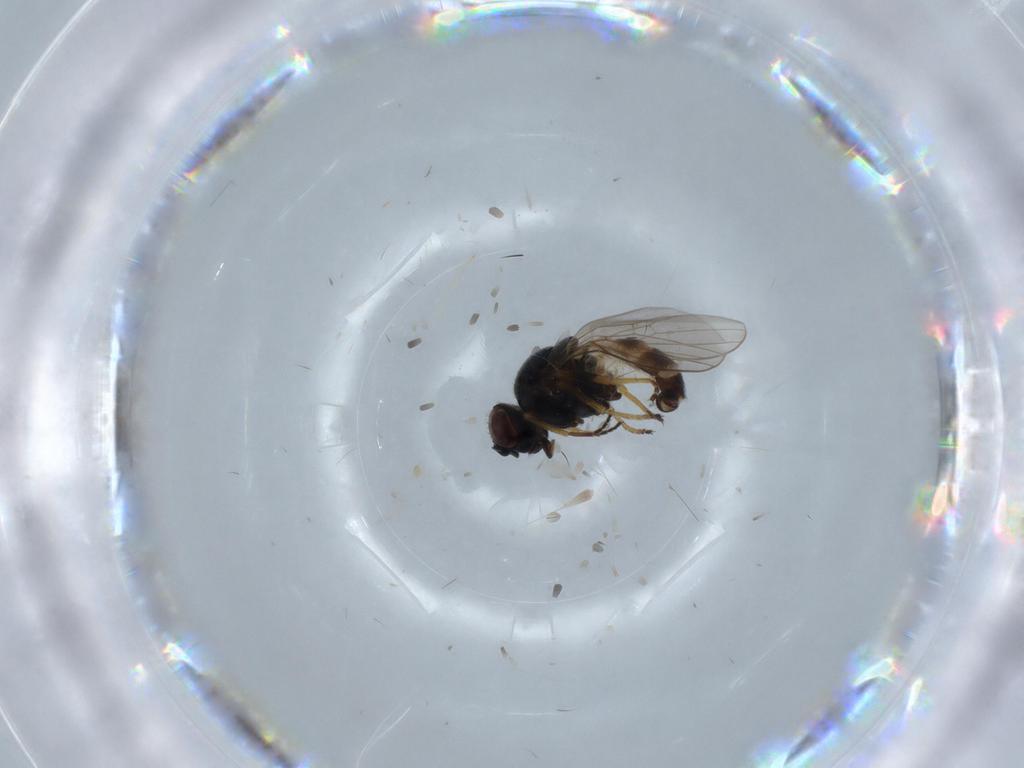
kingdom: Animalia
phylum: Arthropoda
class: Insecta
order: Diptera
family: Chloropidae
